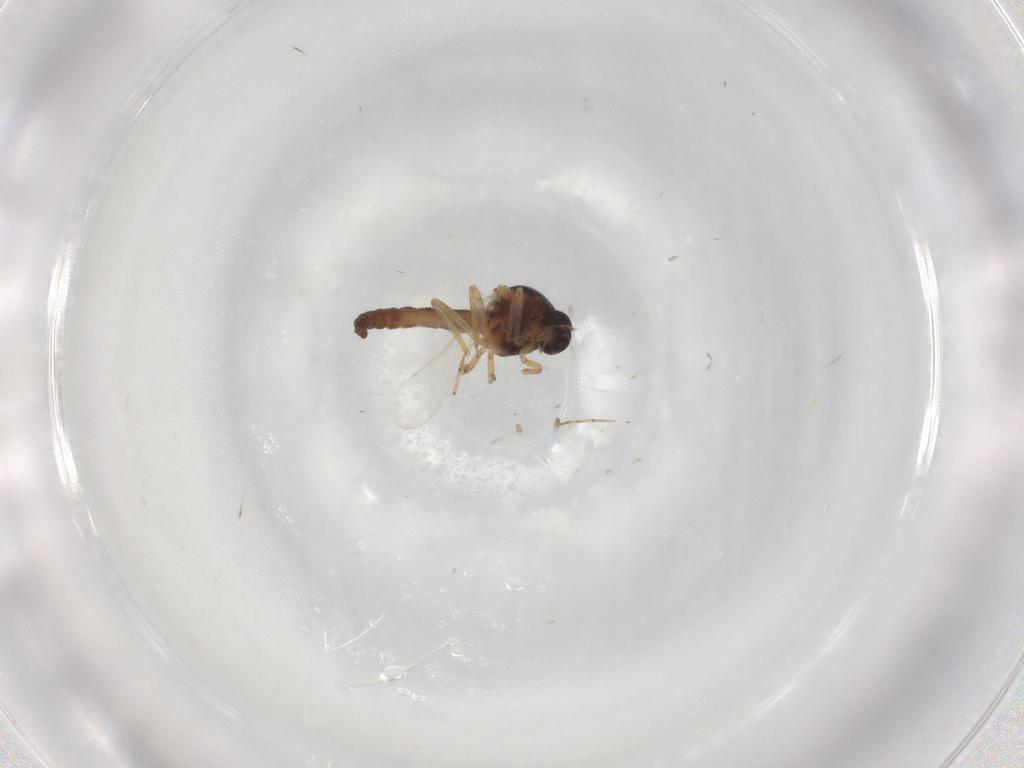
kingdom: Animalia
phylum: Arthropoda
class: Insecta
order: Diptera
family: Ceratopogonidae
